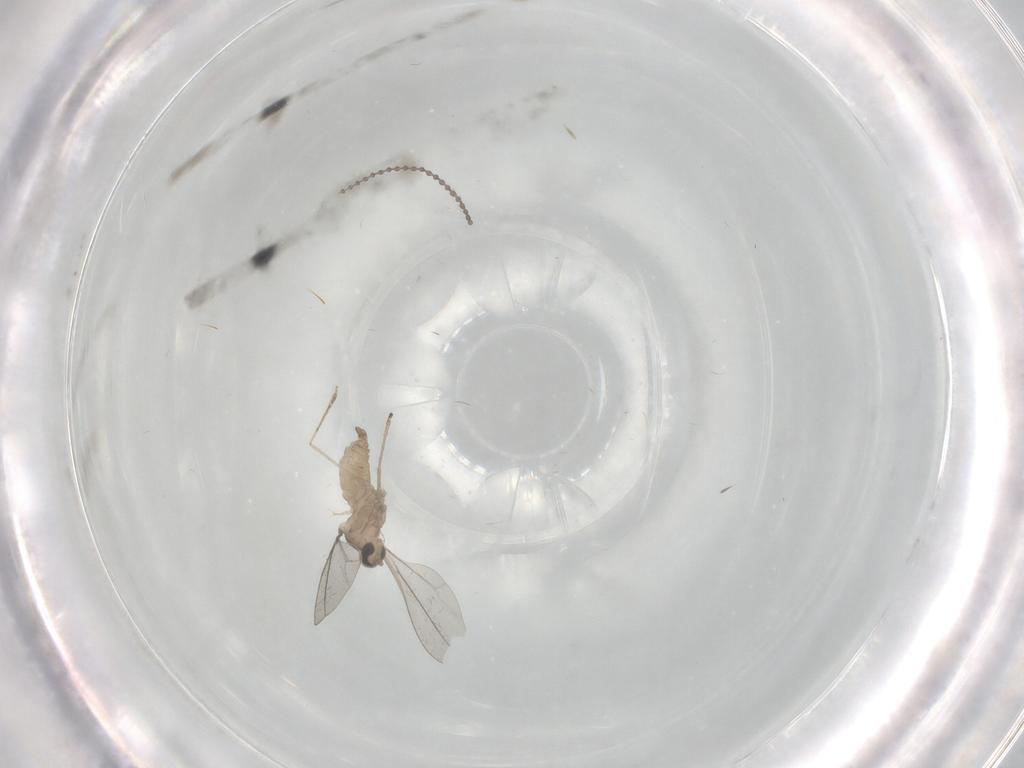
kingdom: Animalia
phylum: Arthropoda
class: Insecta
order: Diptera
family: Cecidomyiidae
